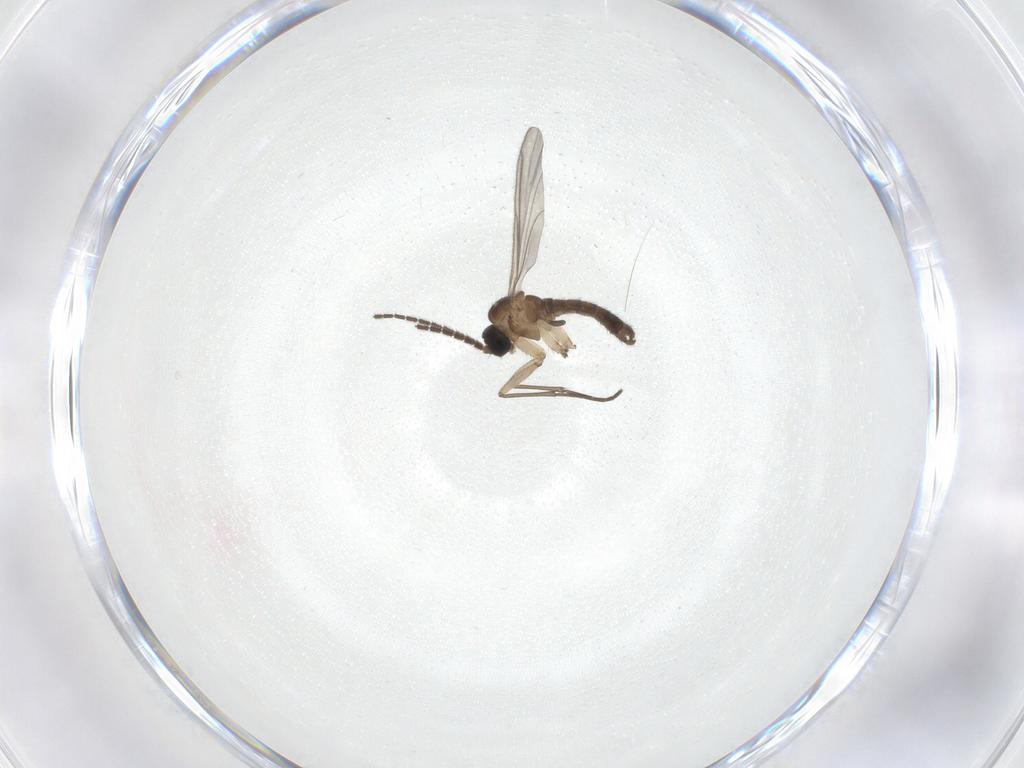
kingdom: Animalia
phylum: Arthropoda
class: Insecta
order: Diptera
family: Sciaridae
